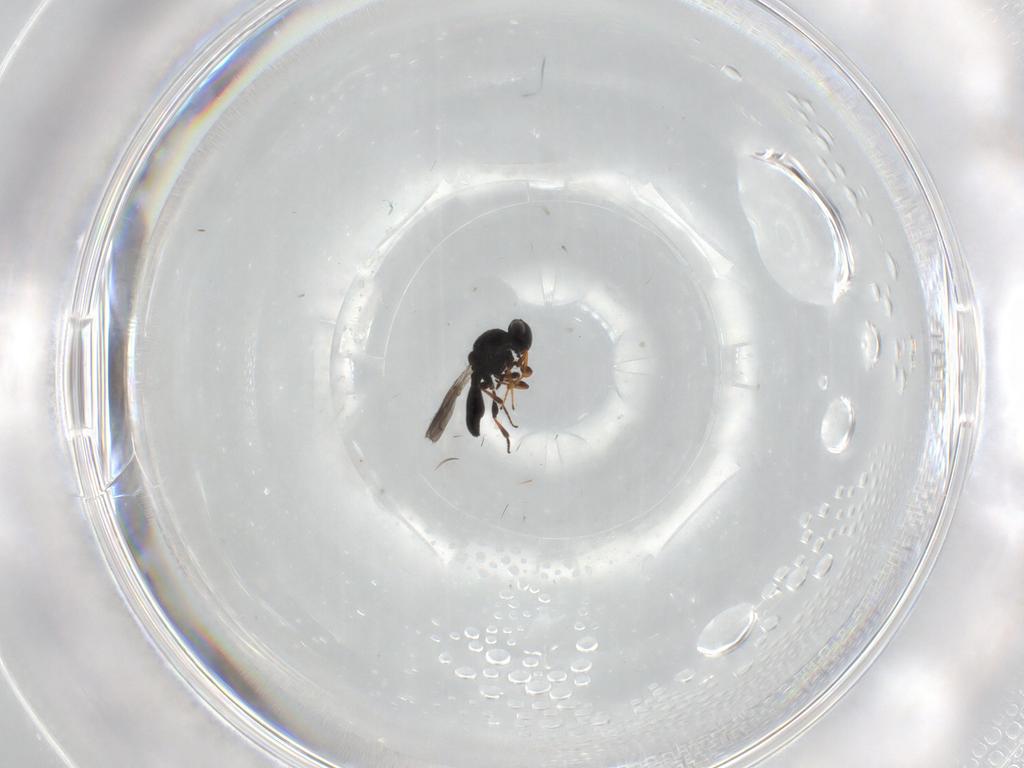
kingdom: Animalia
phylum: Arthropoda
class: Insecta
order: Hymenoptera
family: Platygastridae
